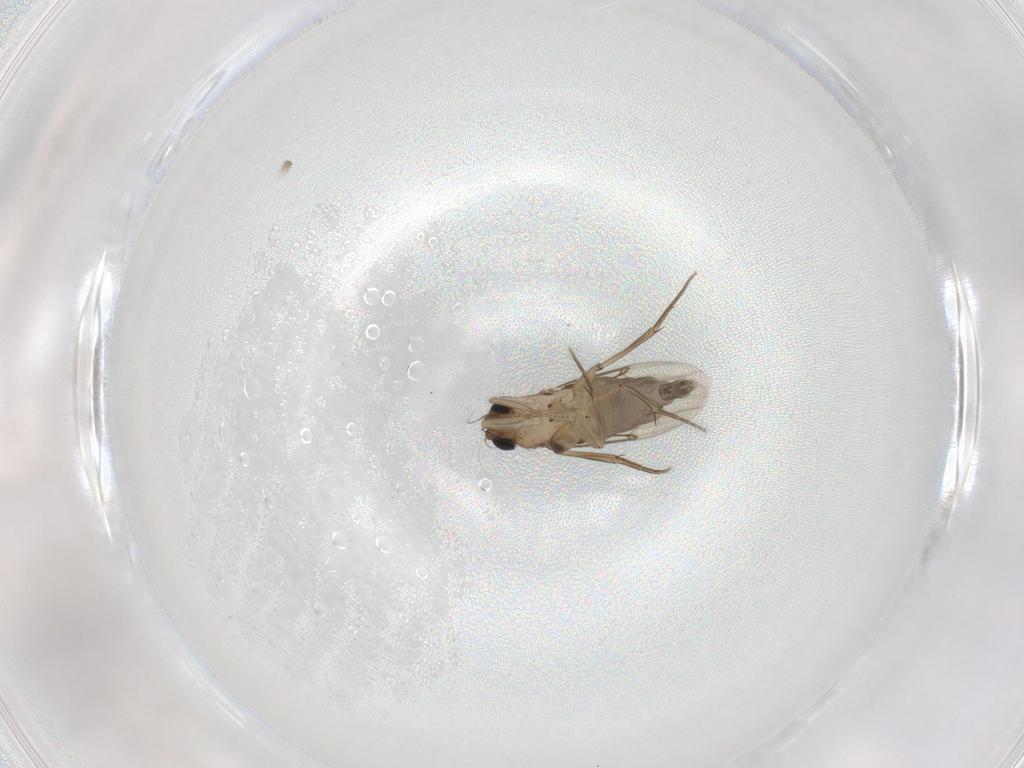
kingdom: Animalia
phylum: Arthropoda
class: Insecta
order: Diptera
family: Phoridae
